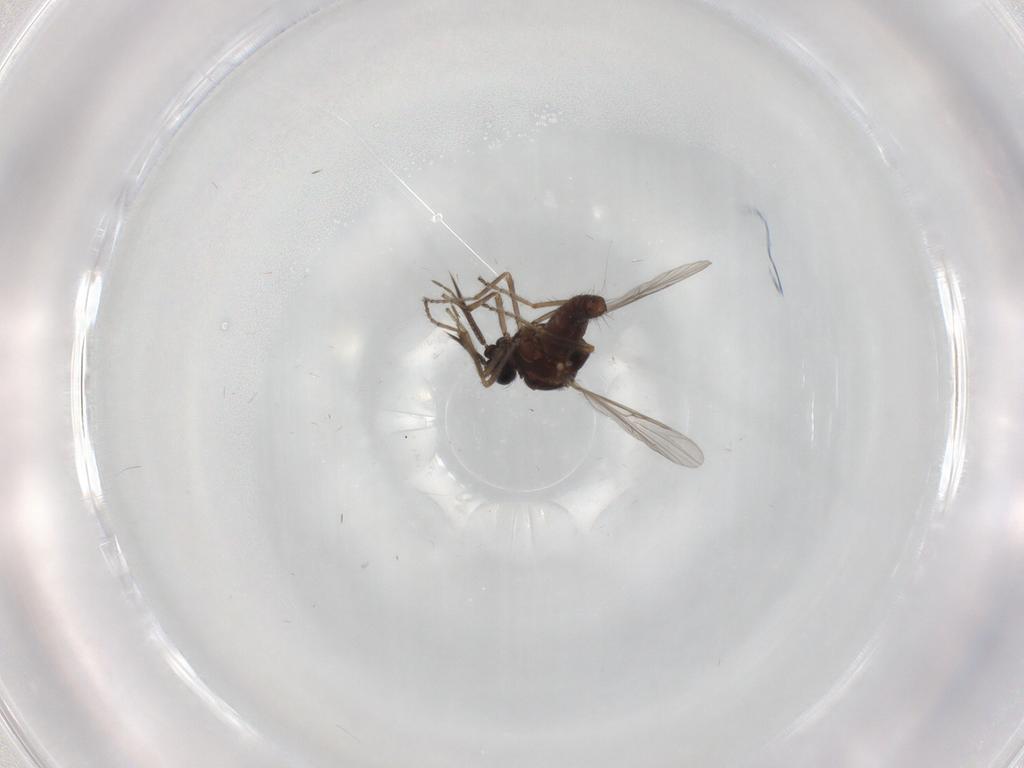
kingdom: Animalia
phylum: Arthropoda
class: Insecta
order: Diptera
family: Ceratopogonidae
